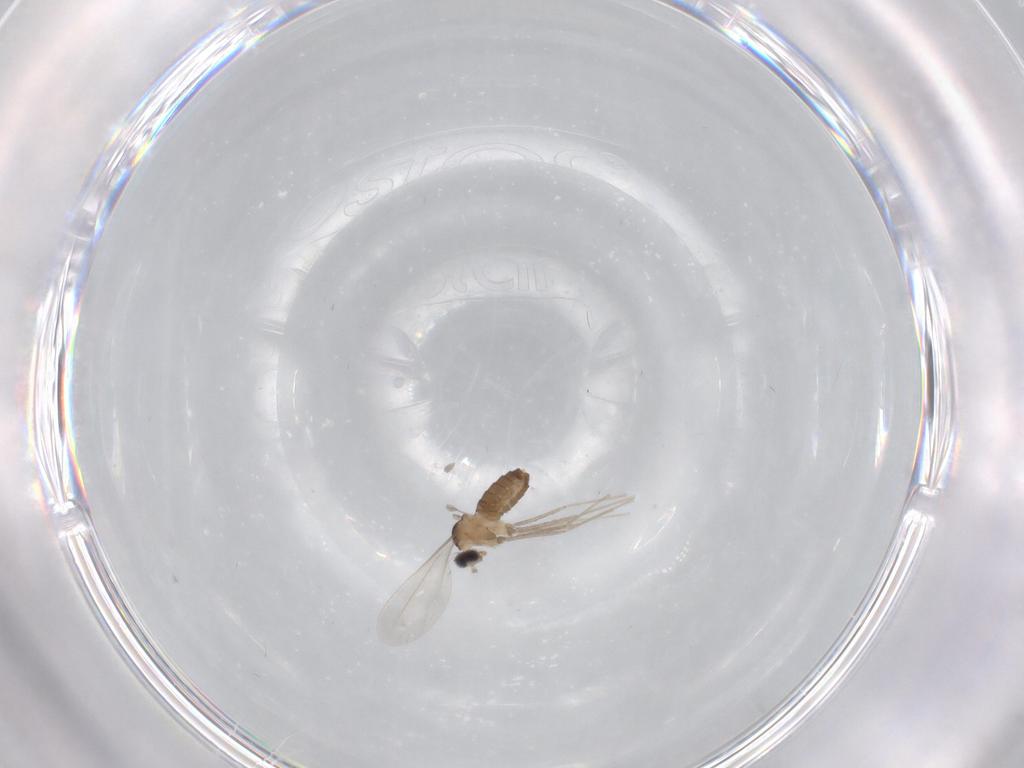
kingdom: Animalia
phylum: Arthropoda
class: Insecta
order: Diptera
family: Cecidomyiidae
